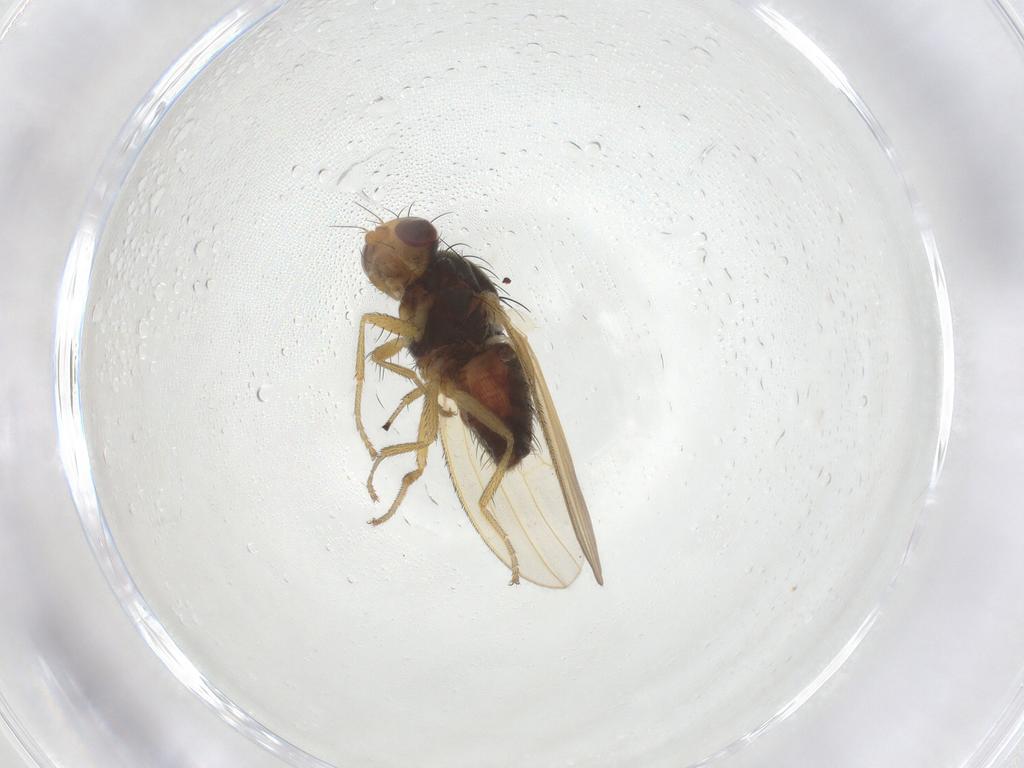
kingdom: Animalia
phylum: Arthropoda
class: Insecta
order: Diptera
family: Heleomyzidae
